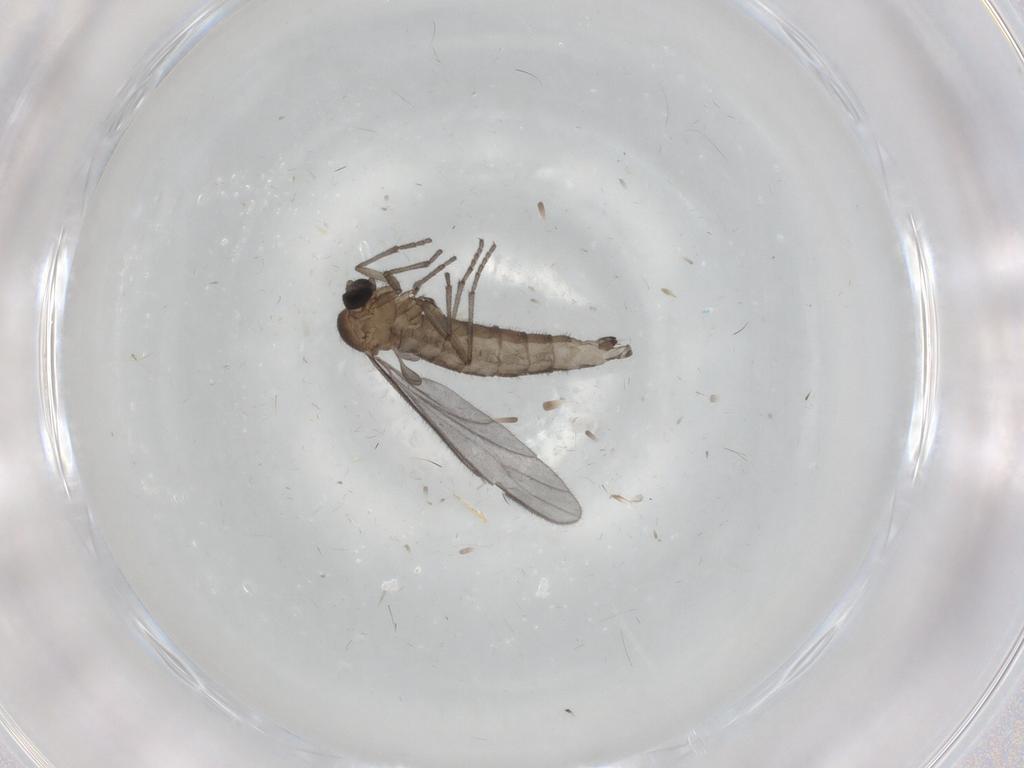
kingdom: Animalia
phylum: Arthropoda
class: Insecta
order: Diptera
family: Sciaridae
